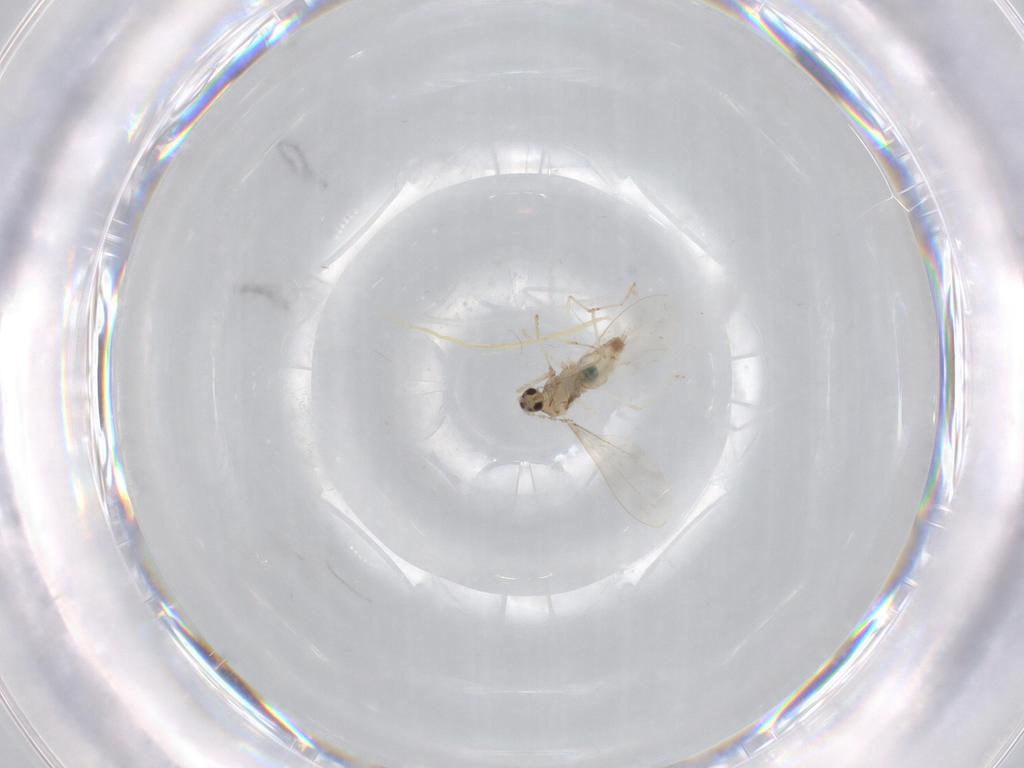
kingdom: Animalia
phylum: Arthropoda
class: Insecta
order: Diptera
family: Cecidomyiidae
